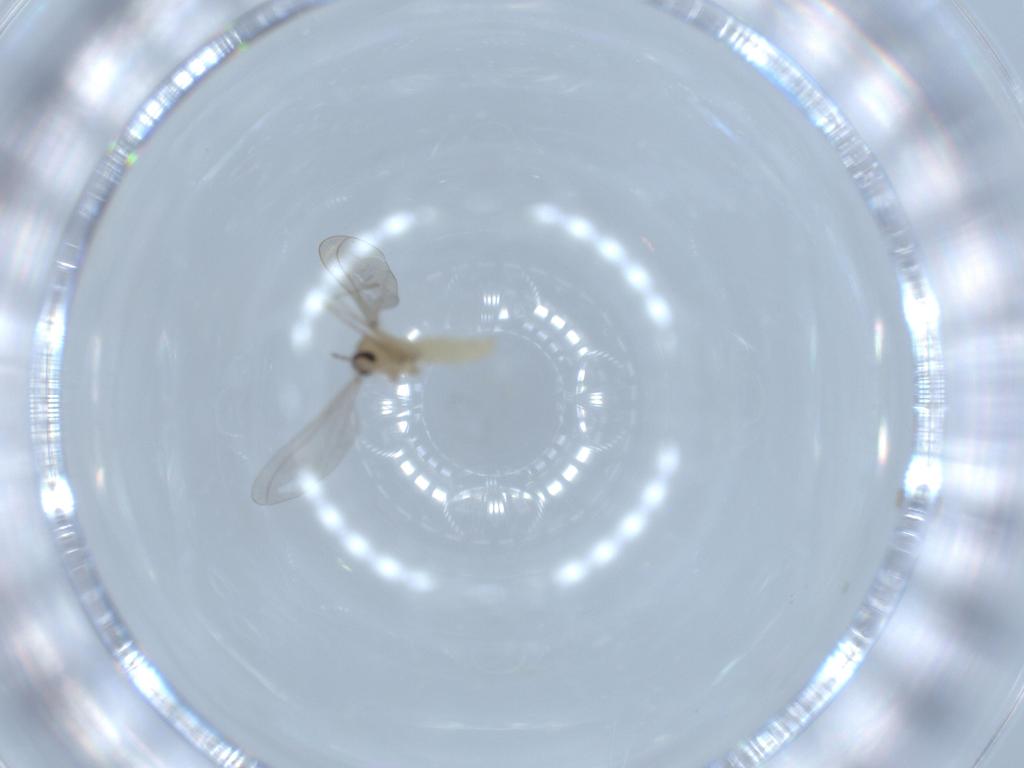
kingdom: Animalia
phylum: Arthropoda
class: Insecta
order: Diptera
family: Cecidomyiidae
